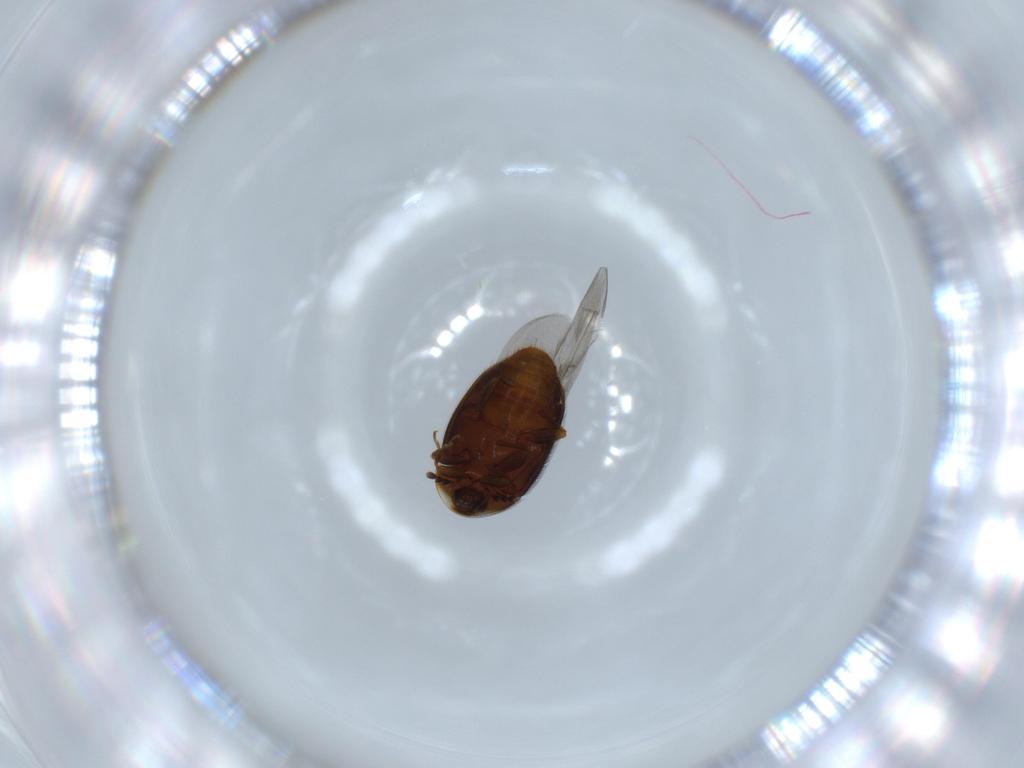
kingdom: Animalia
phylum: Arthropoda
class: Insecta
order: Coleoptera
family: Corylophidae
